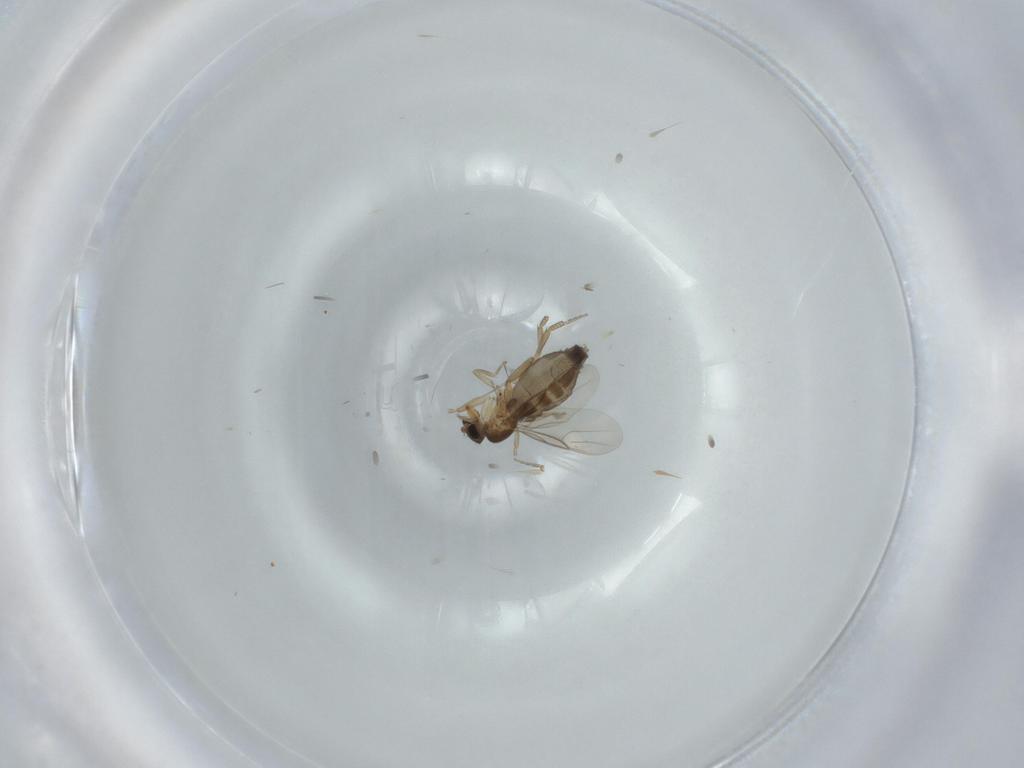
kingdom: Animalia
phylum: Arthropoda
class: Insecta
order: Diptera
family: Phoridae
